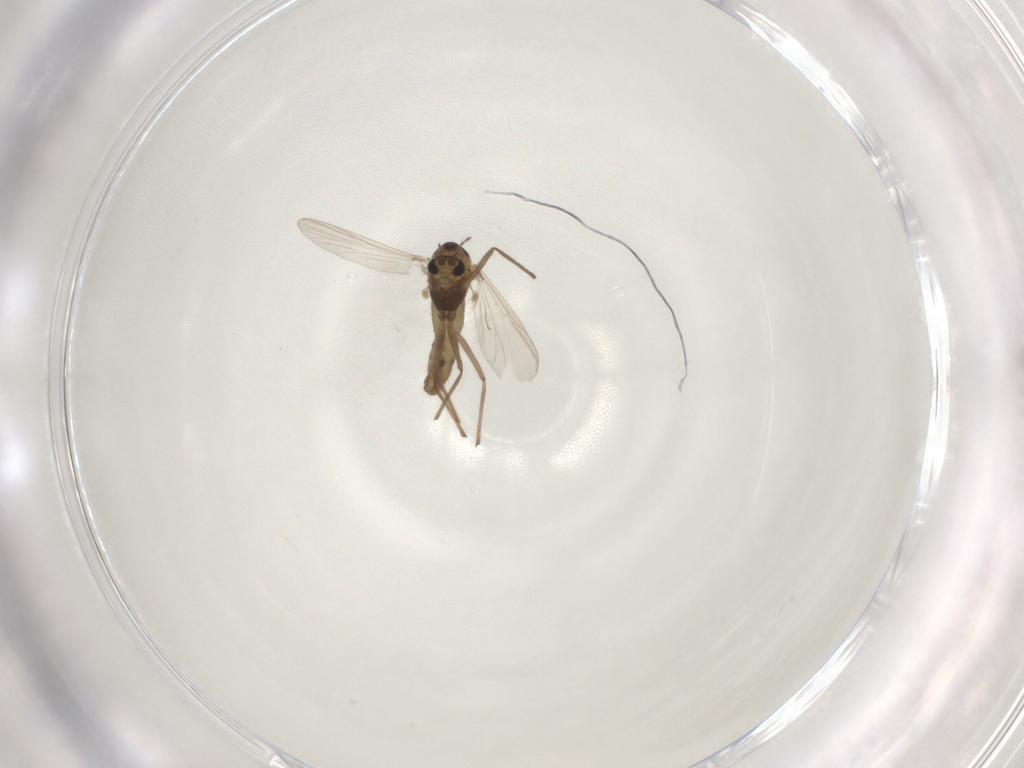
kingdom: Animalia
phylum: Arthropoda
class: Insecta
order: Diptera
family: Chironomidae
